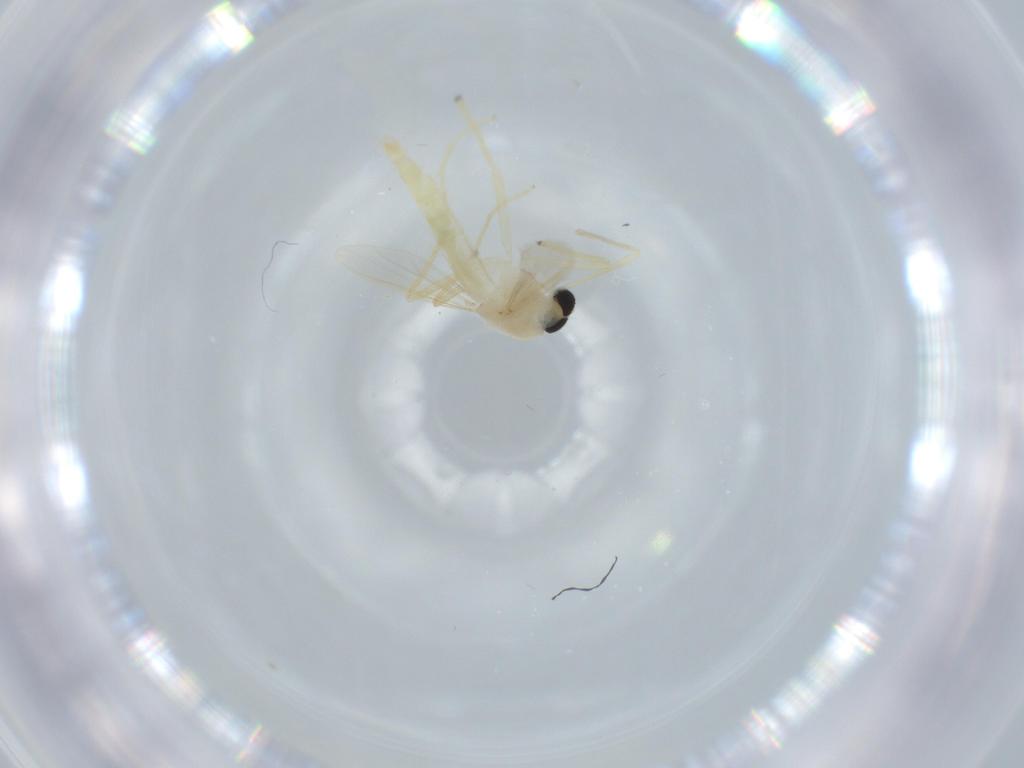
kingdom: Animalia
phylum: Arthropoda
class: Insecta
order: Diptera
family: Chironomidae
